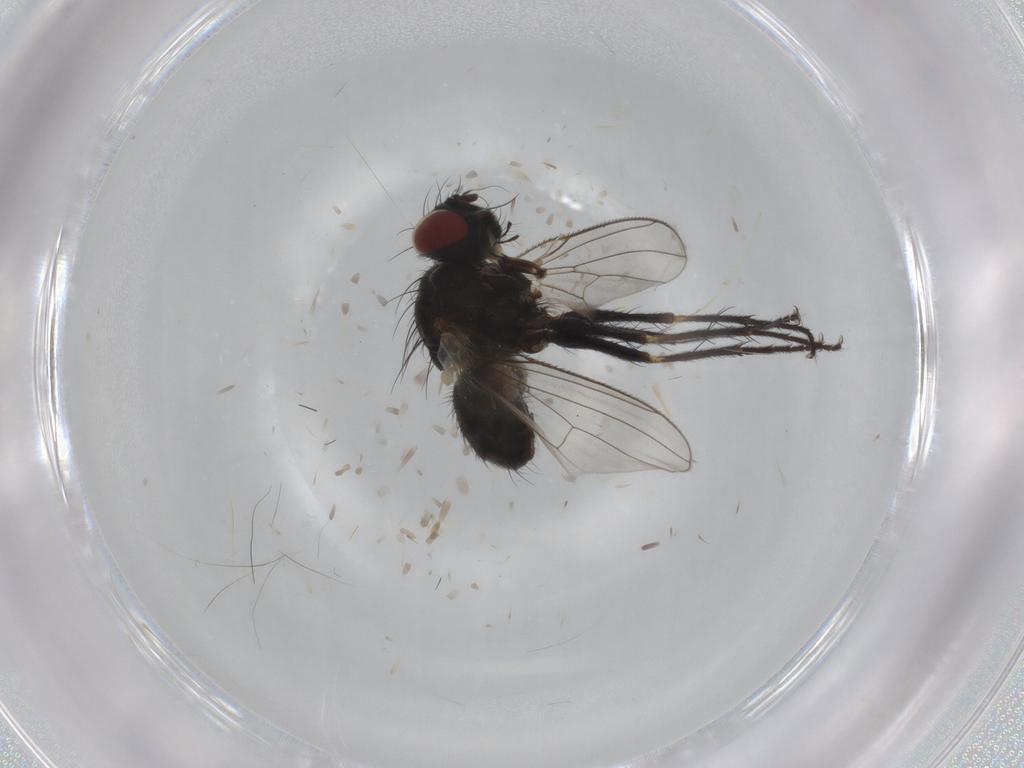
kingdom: Animalia
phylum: Arthropoda
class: Insecta
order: Diptera
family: Muscidae
